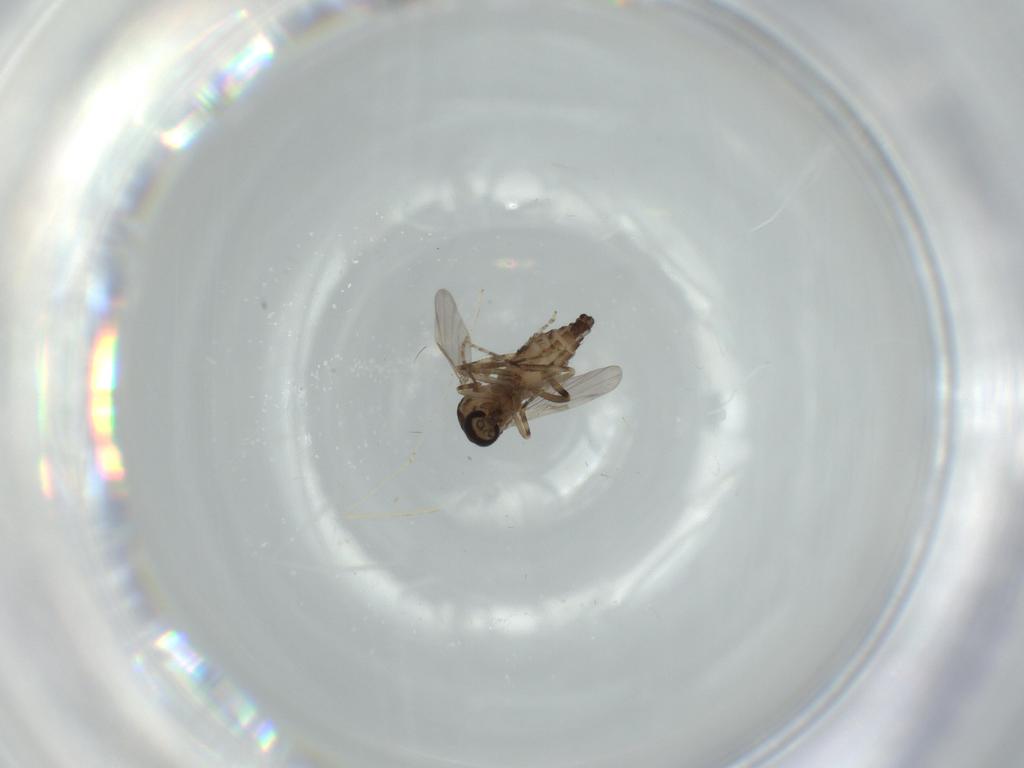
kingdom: Animalia
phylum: Arthropoda
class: Insecta
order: Diptera
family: Ceratopogonidae
